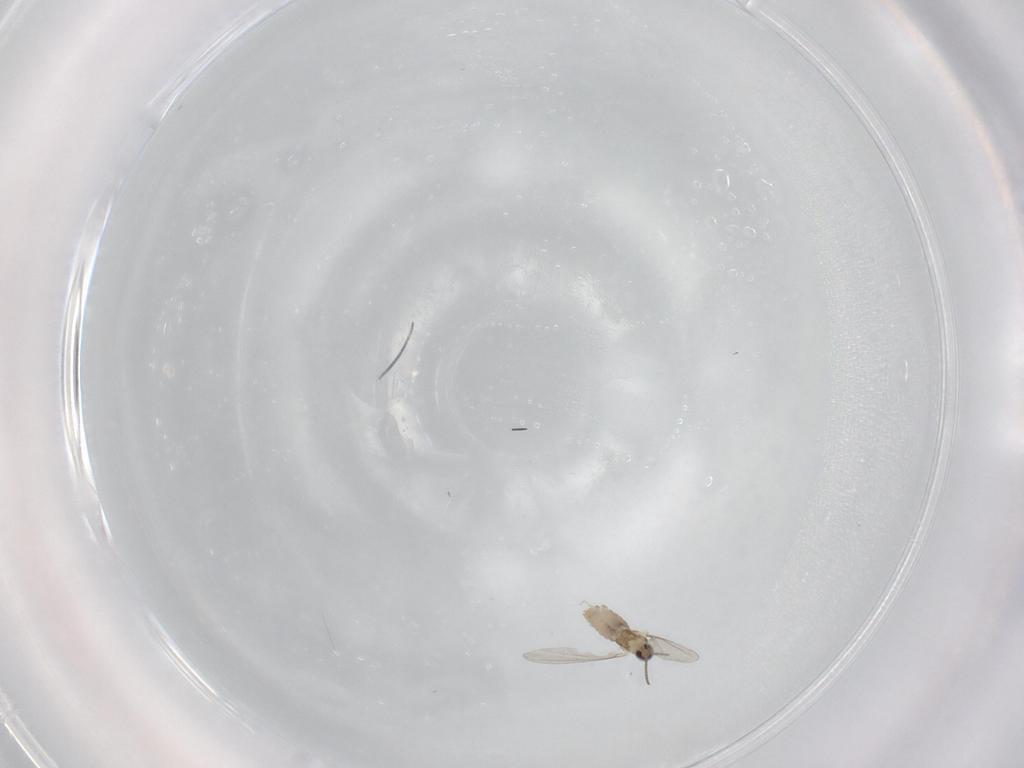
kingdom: Animalia
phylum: Arthropoda
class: Insecta
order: Diptera
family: Cecidomyiidae
